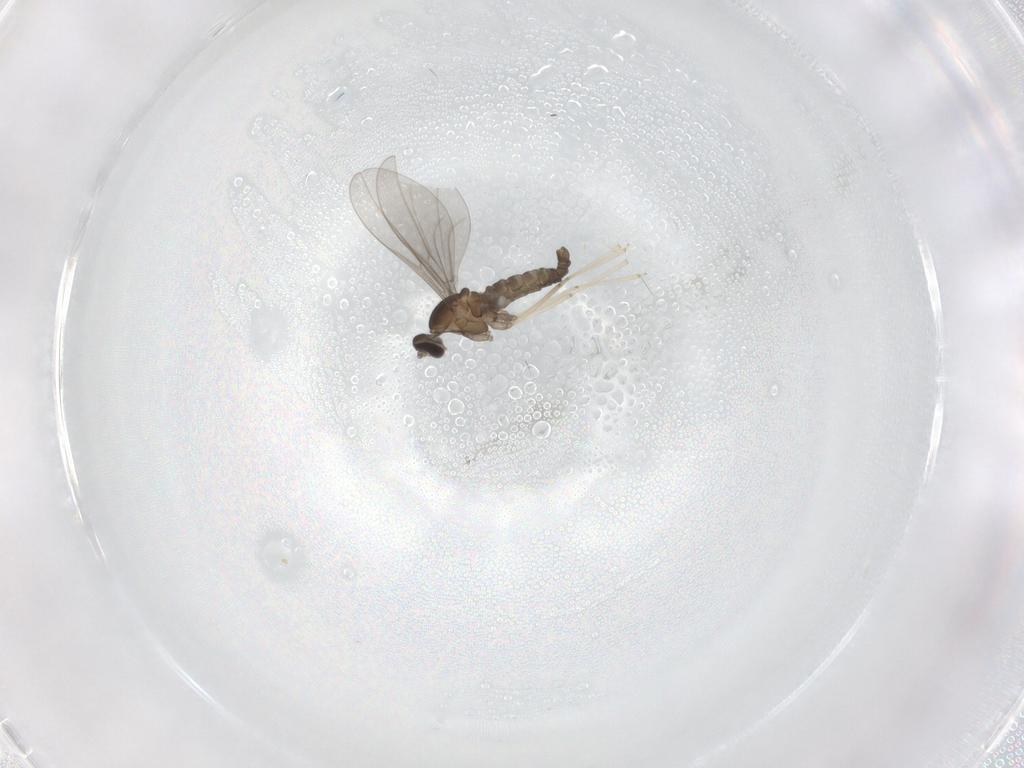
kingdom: Animalia
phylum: Arthropoda
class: Insecta
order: Diptera
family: Cecidomyiidae
